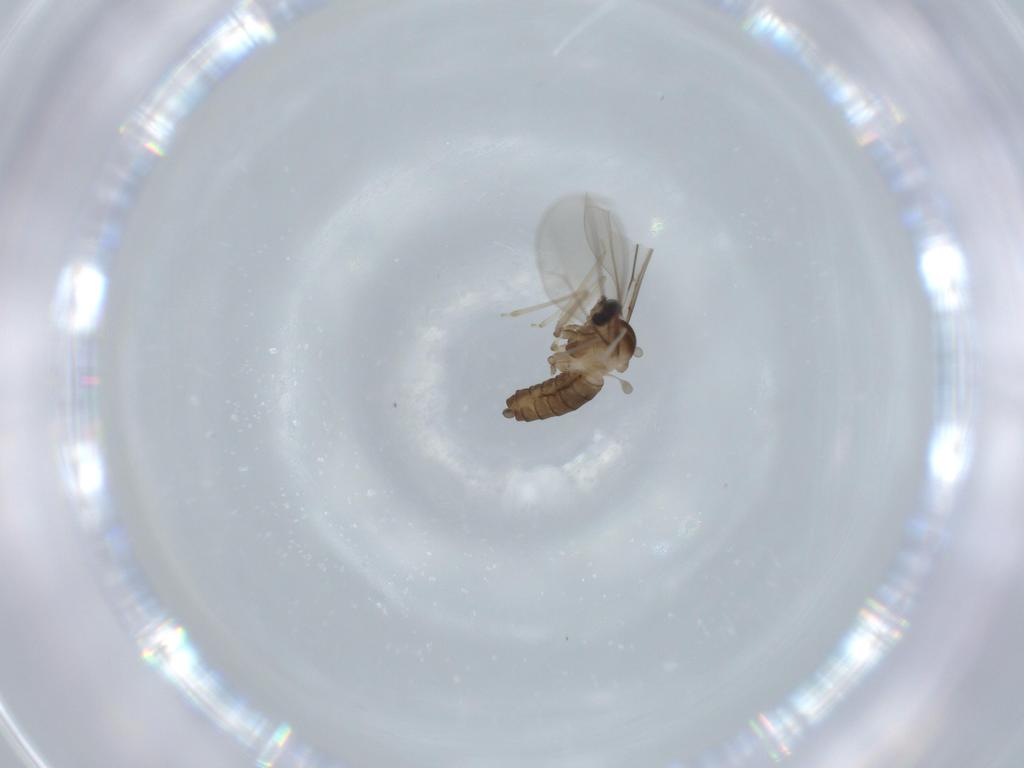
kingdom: Animalia
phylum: Arthropoda
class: Insecta
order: Diptera
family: Cecidomyiidae
